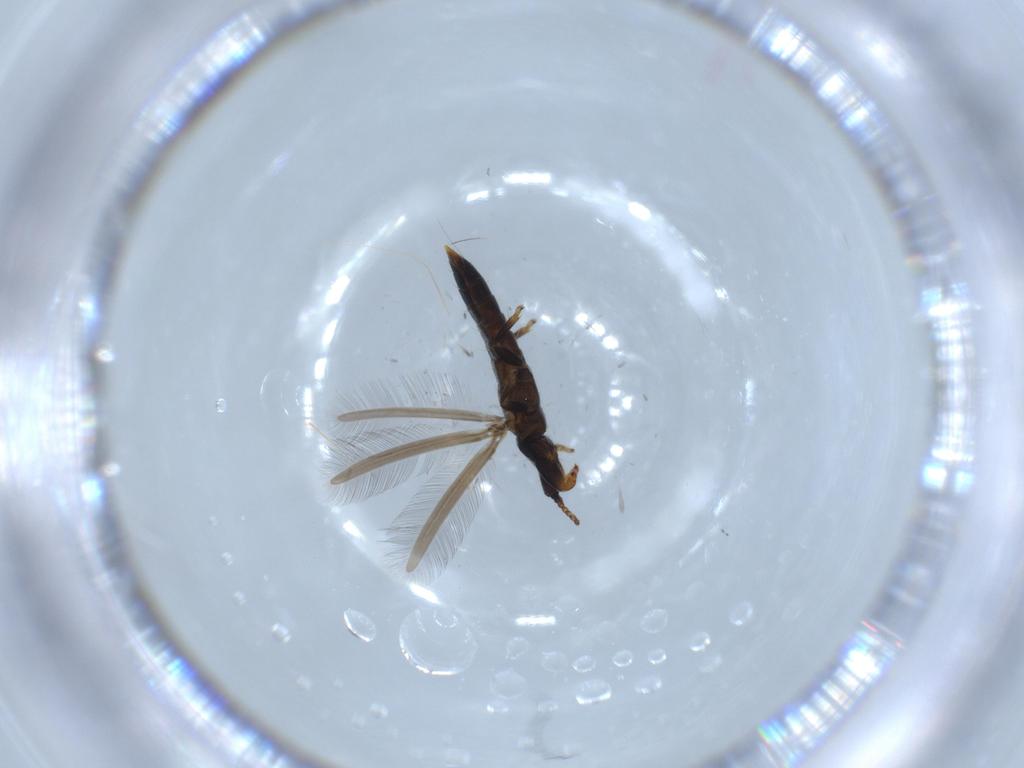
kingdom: Animalia
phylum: Arthropoda
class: Insecta
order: Thysanoptera
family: Phlaeothripidae
